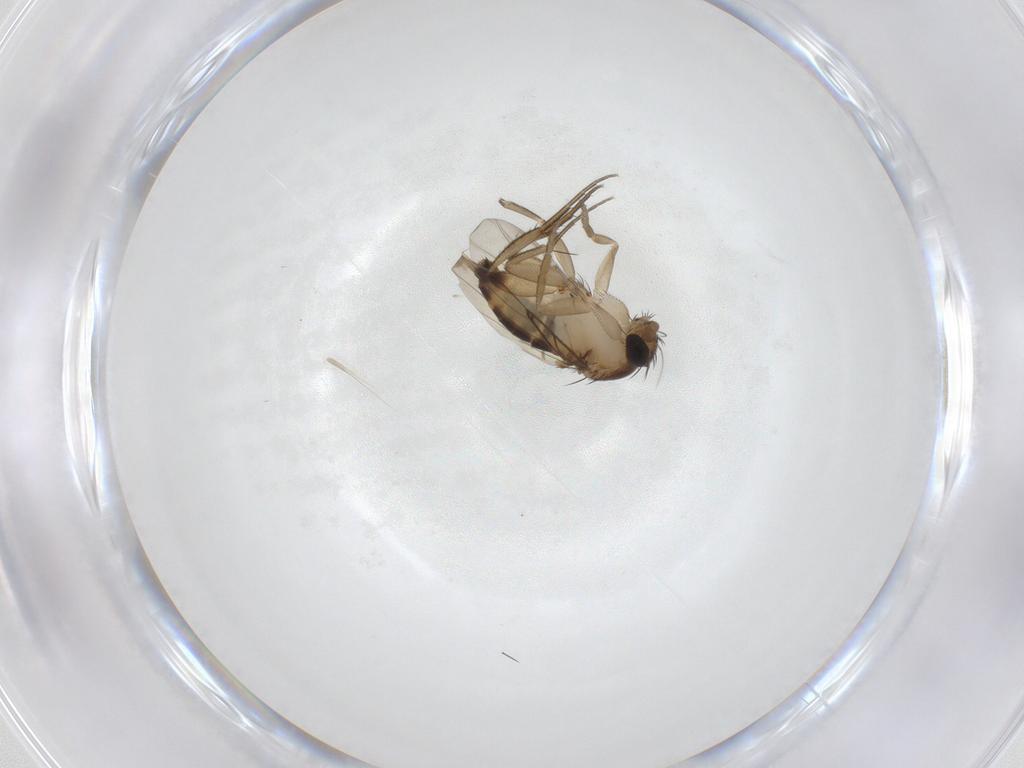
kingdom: Animalia
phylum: Arthropoda
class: Insecta
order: Diptera
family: Phoridae
